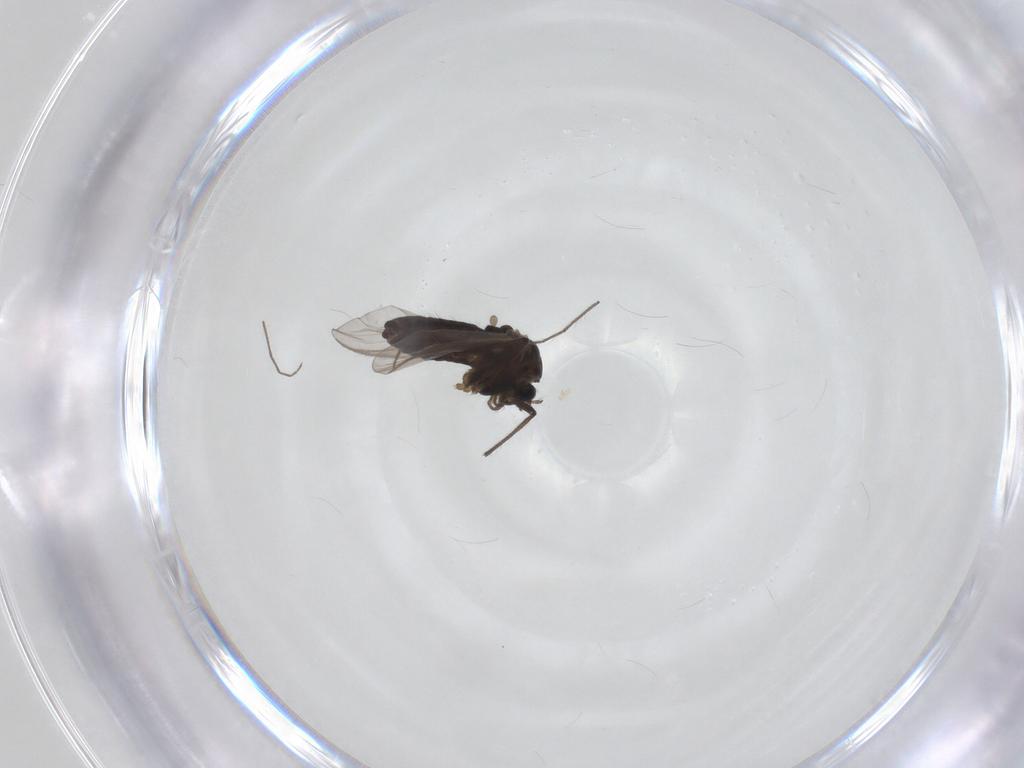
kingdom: Animalia
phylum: Arthropoda
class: Insecta
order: Diptera
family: Chironomidae
